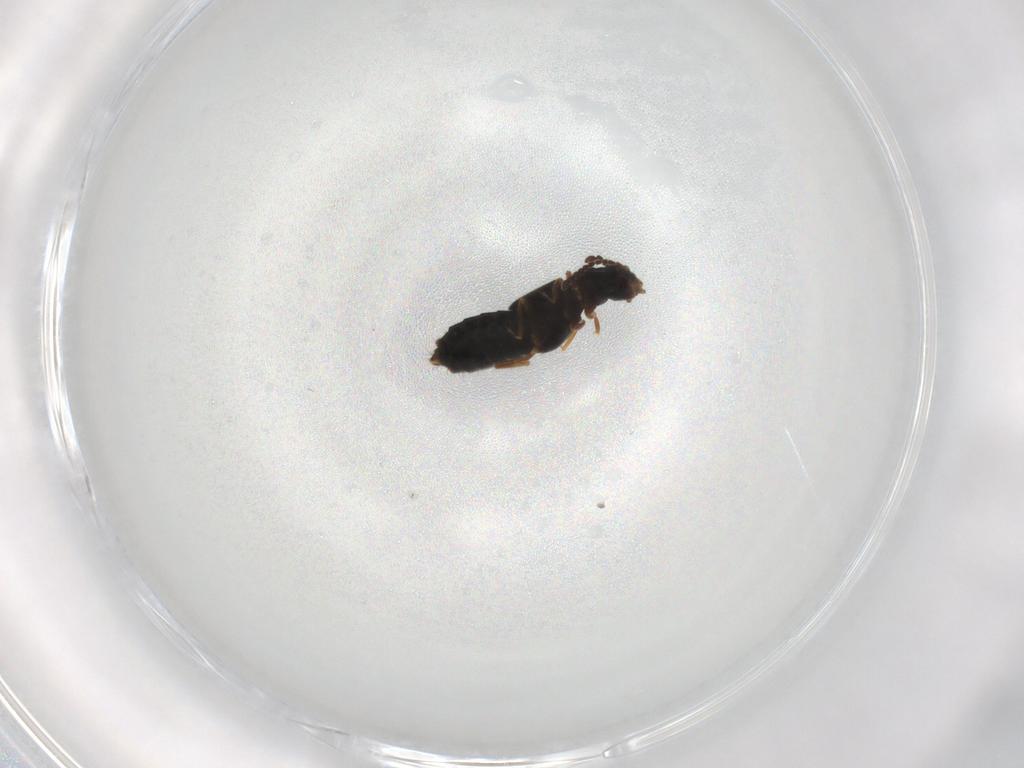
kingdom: Animalia
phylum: Arthropoda
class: Insecta
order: Coleoptera
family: Staphylinidae
